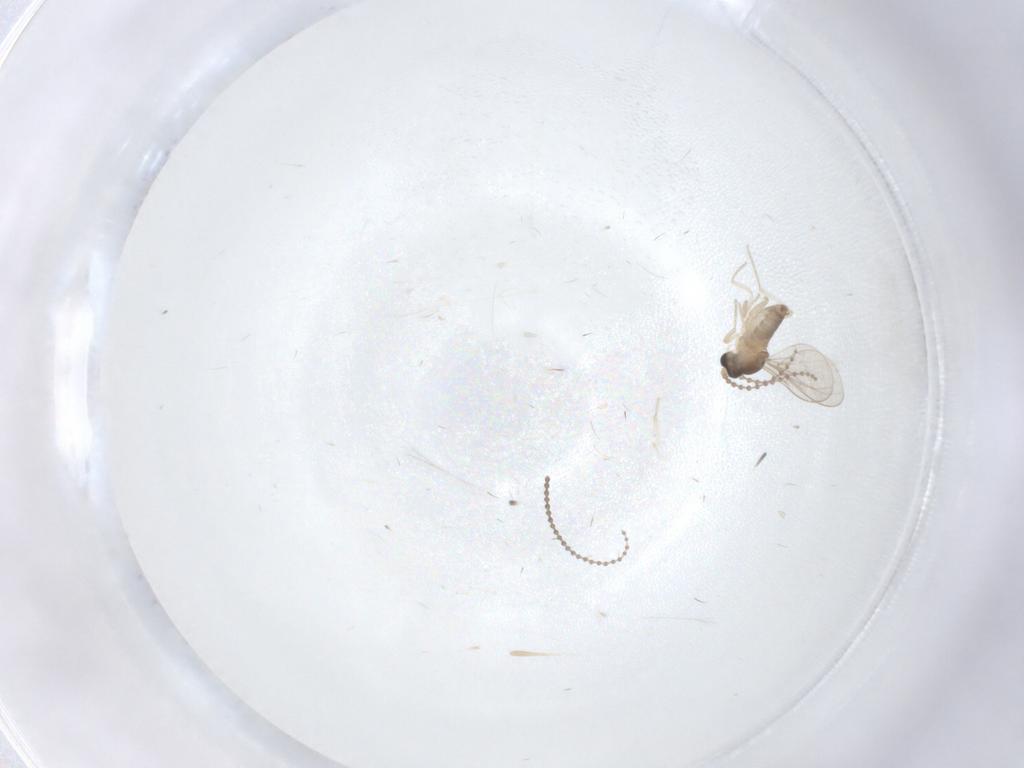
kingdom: Animalia
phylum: Arthropoda
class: Insecta
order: Diptera
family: Cecidomyiidae
